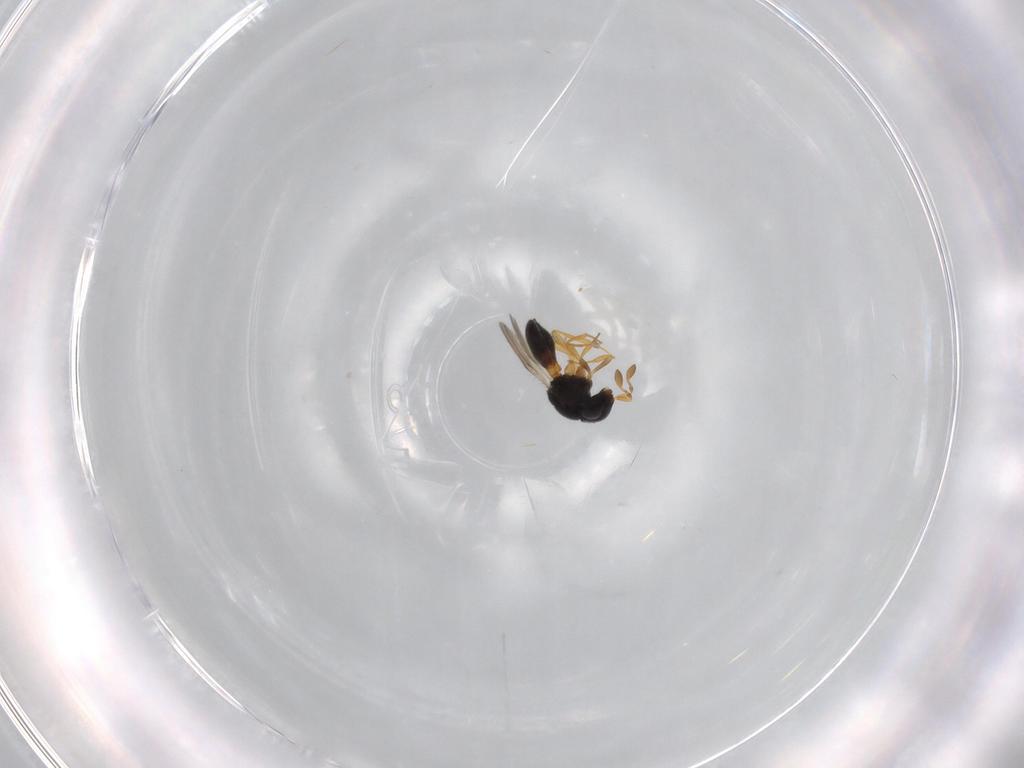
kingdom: Animalia
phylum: Arthropoda
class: Insecta
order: Hymenoptera
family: Scelionidae
